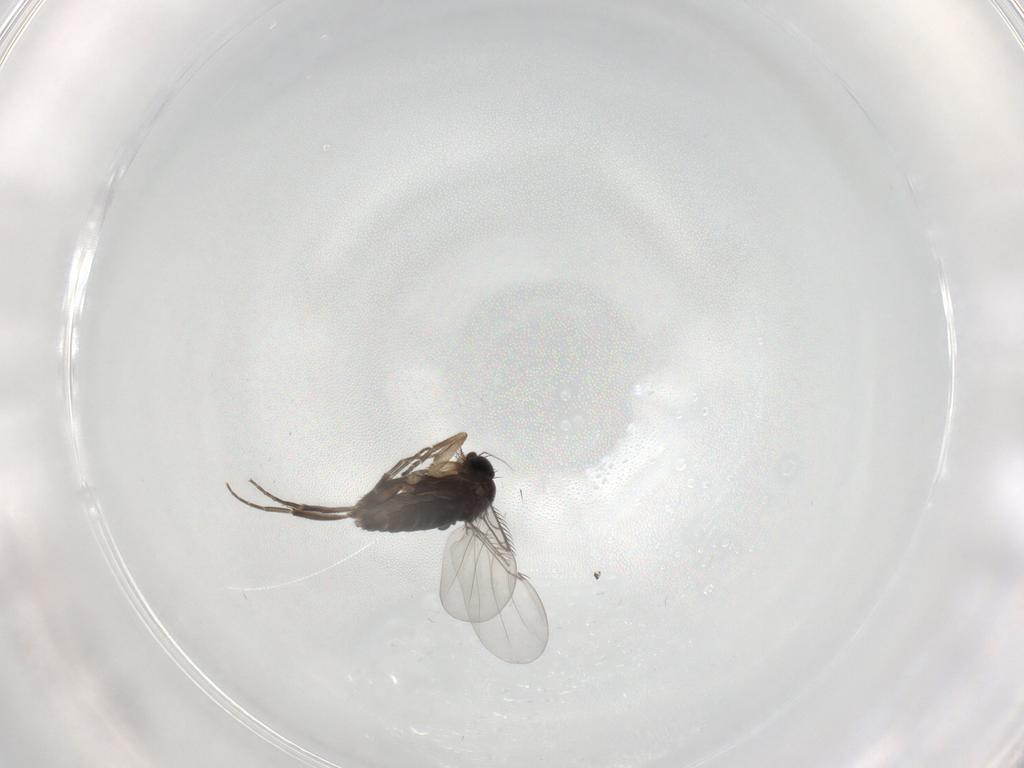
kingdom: Animalia
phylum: Arthropoda
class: Insecta
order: Diptera
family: Phoridae
